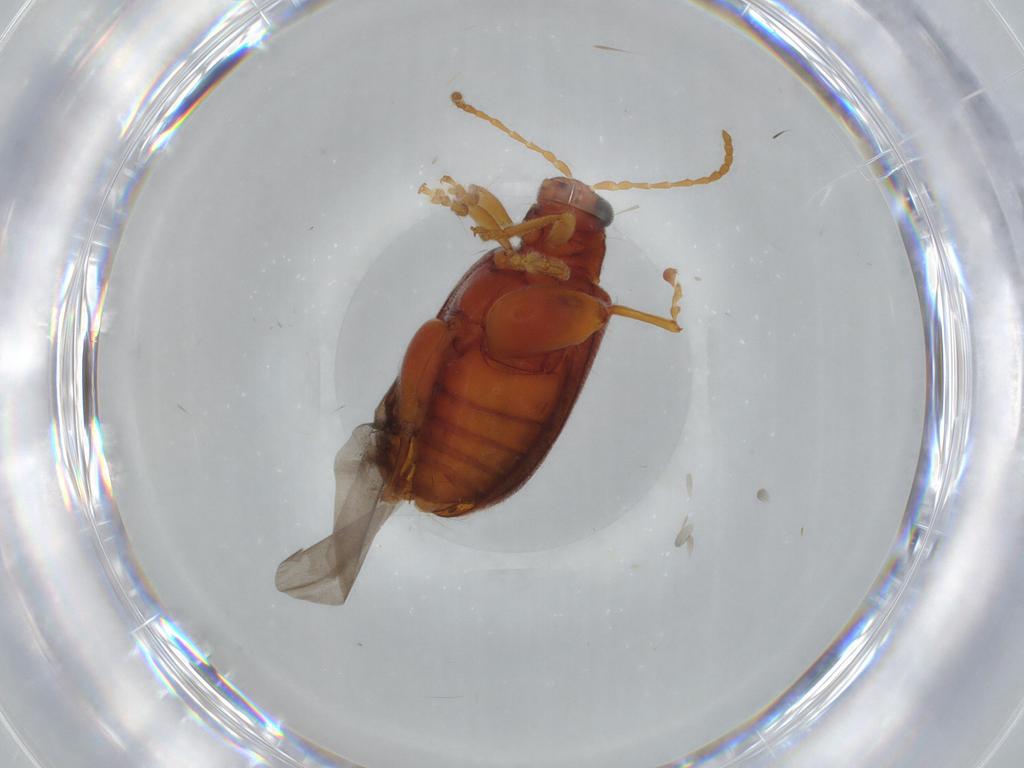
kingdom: Animalia
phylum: Arthropoda
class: Insecta
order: Coleoptera
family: Chrysomelidae
